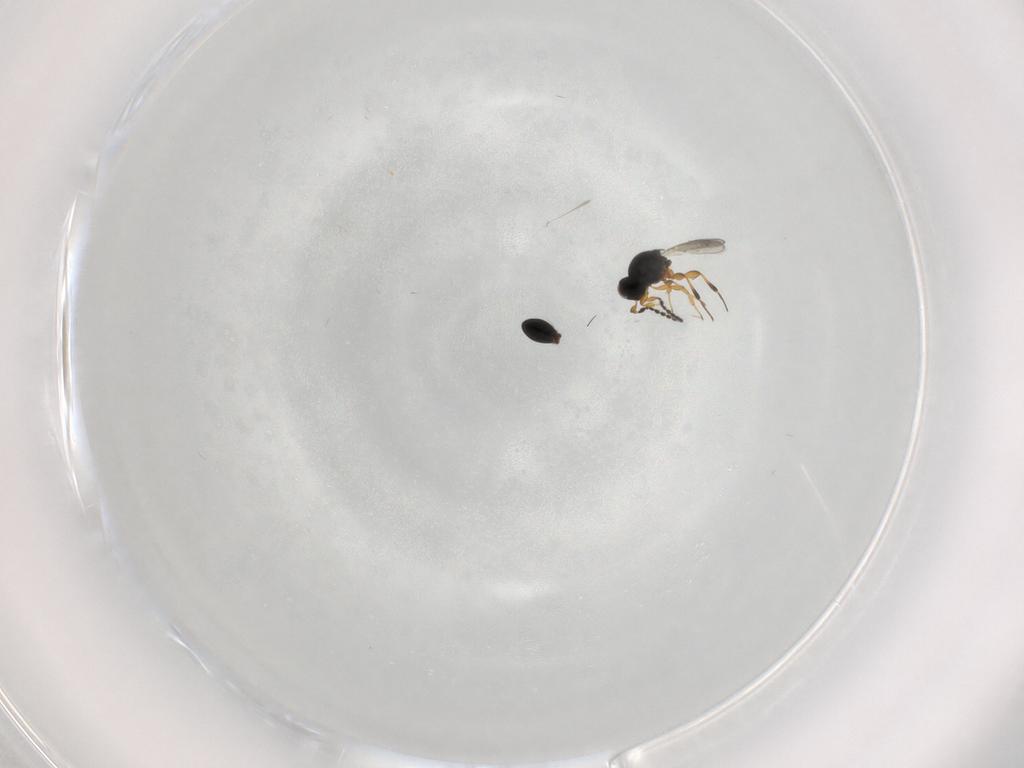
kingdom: Animalia
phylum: Arthropoda
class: Insecta
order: Hymenoptera
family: Platygastridae
